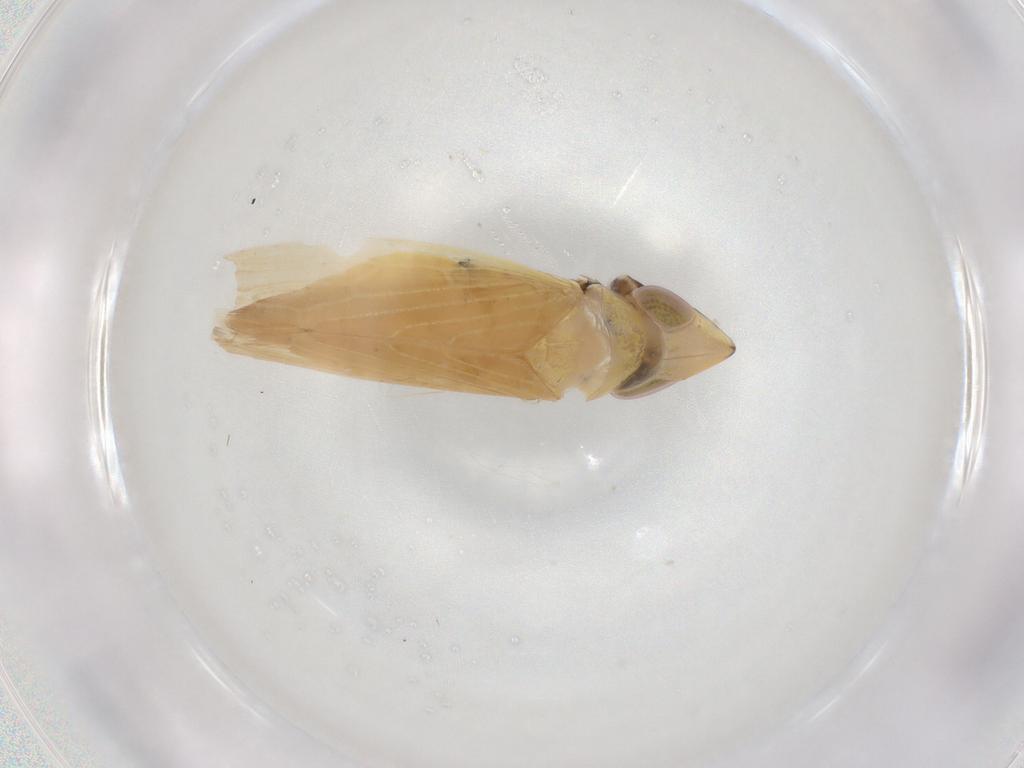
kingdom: Animalia
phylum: Arthropoda
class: Insecta
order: Hemiptera
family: Cicadellidae
